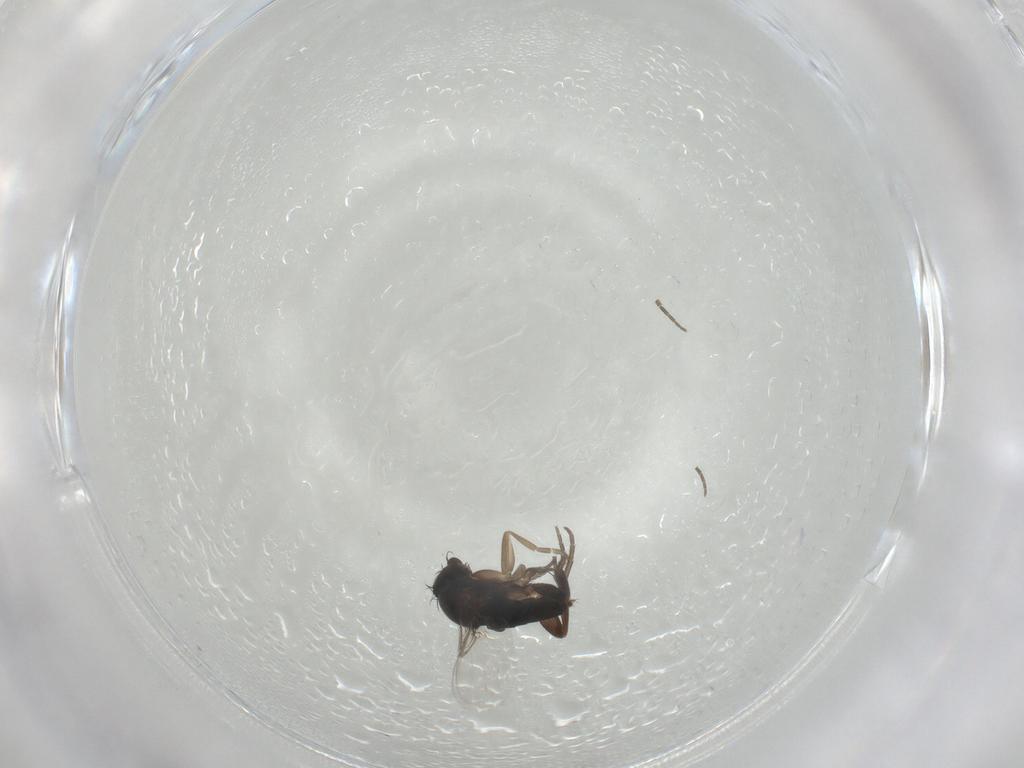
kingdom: Animalia
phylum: Arthropoda
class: Insecta
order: Diptera
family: Phoridae
